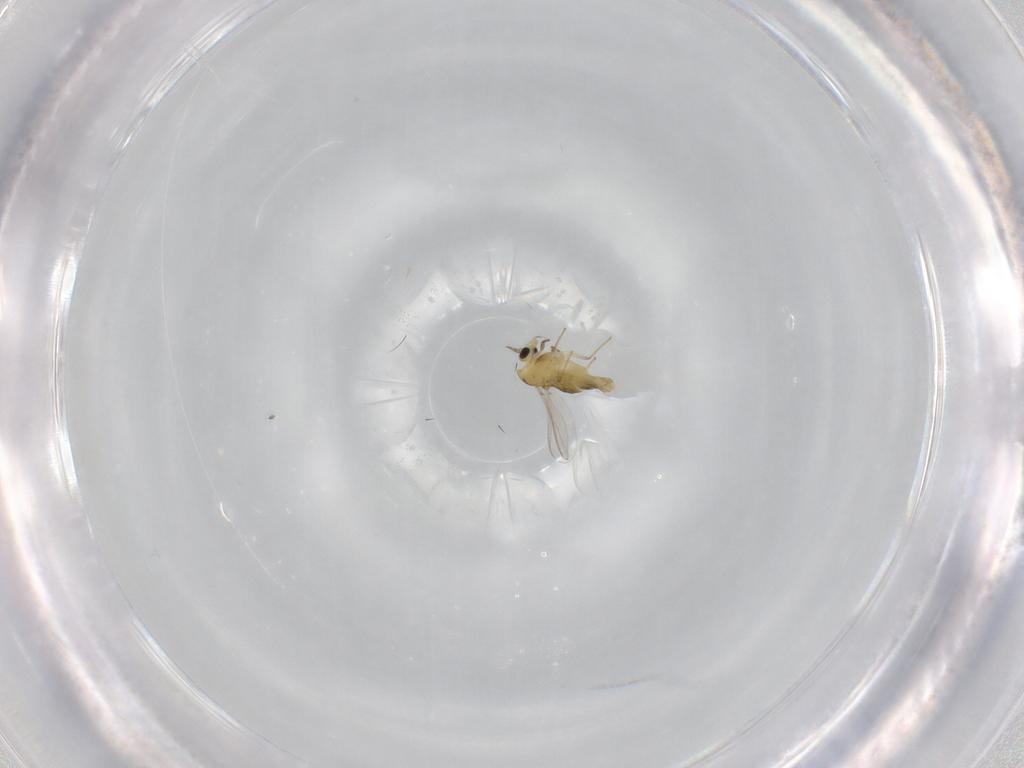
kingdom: Animalia
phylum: Arthropoda
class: Insecta
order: Diptera
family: Chironomidae
